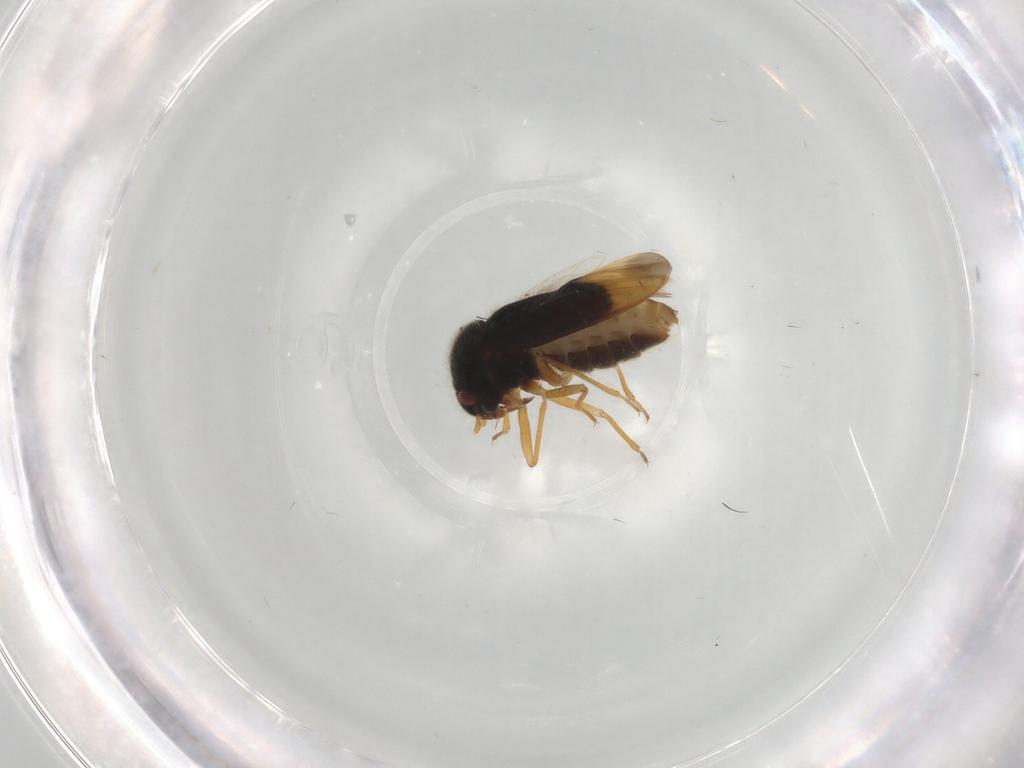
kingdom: Animalia
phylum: Arthropoda
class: Insecta
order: Hemiptera
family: Schizopteridae
